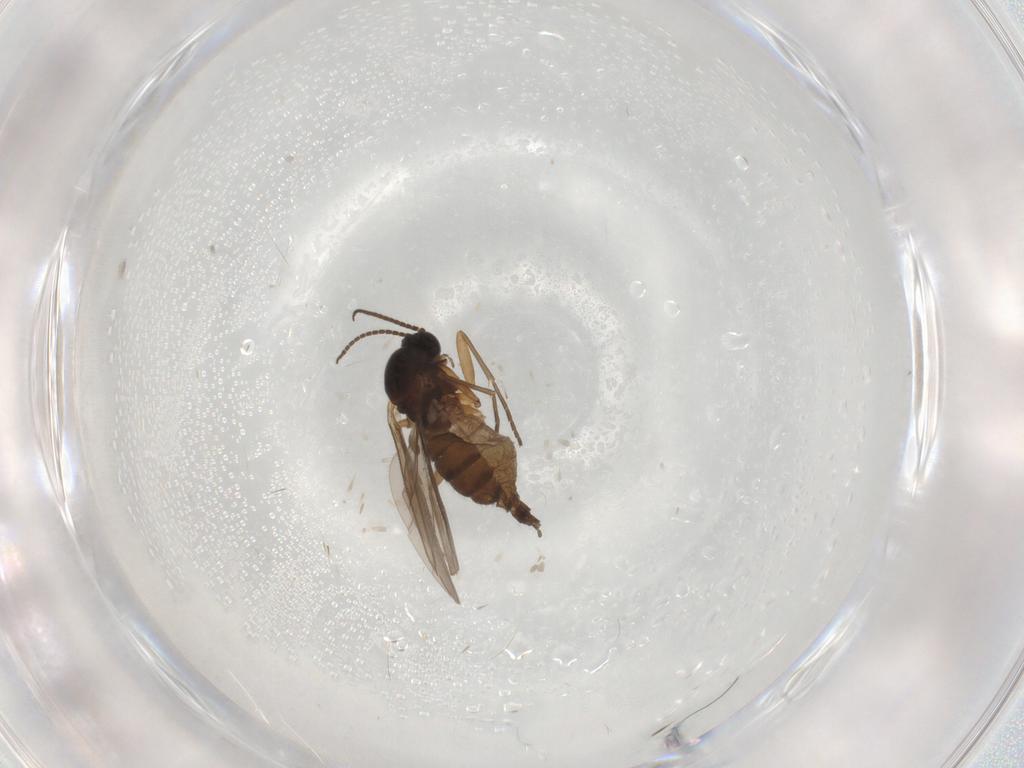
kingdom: Animalia
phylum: Arthropoda
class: Insecta
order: Diptera
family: Sciaridae
